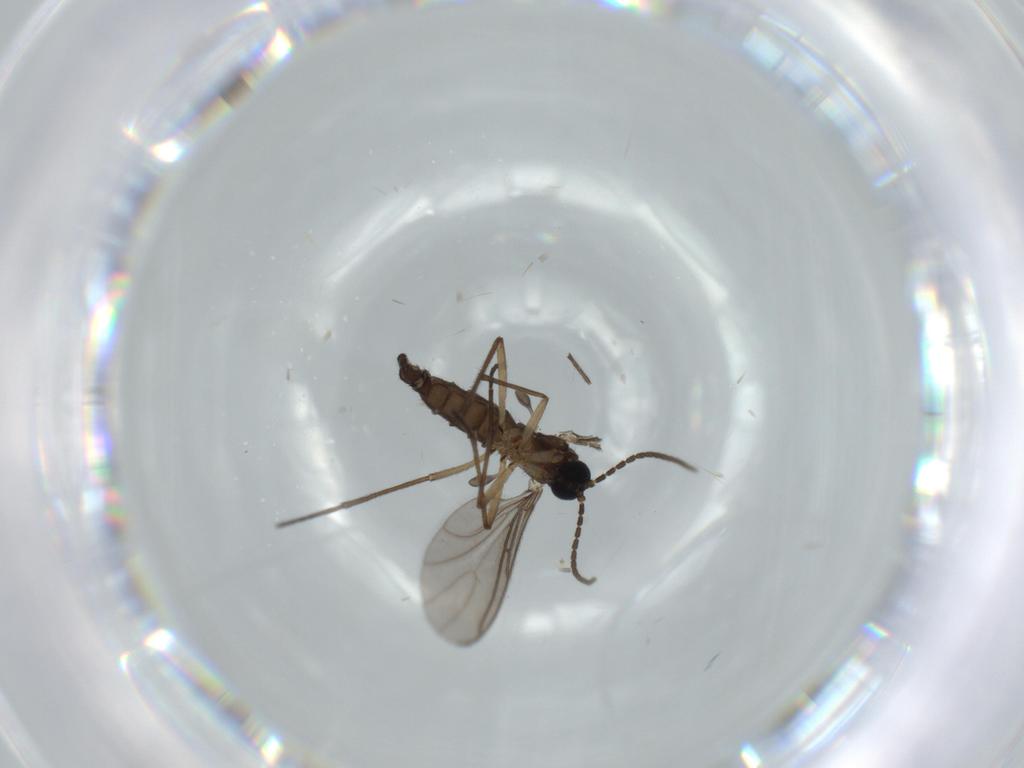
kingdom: Animalia
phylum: Arthropoda
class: Insecta
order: Diptera
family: Sciaridae
